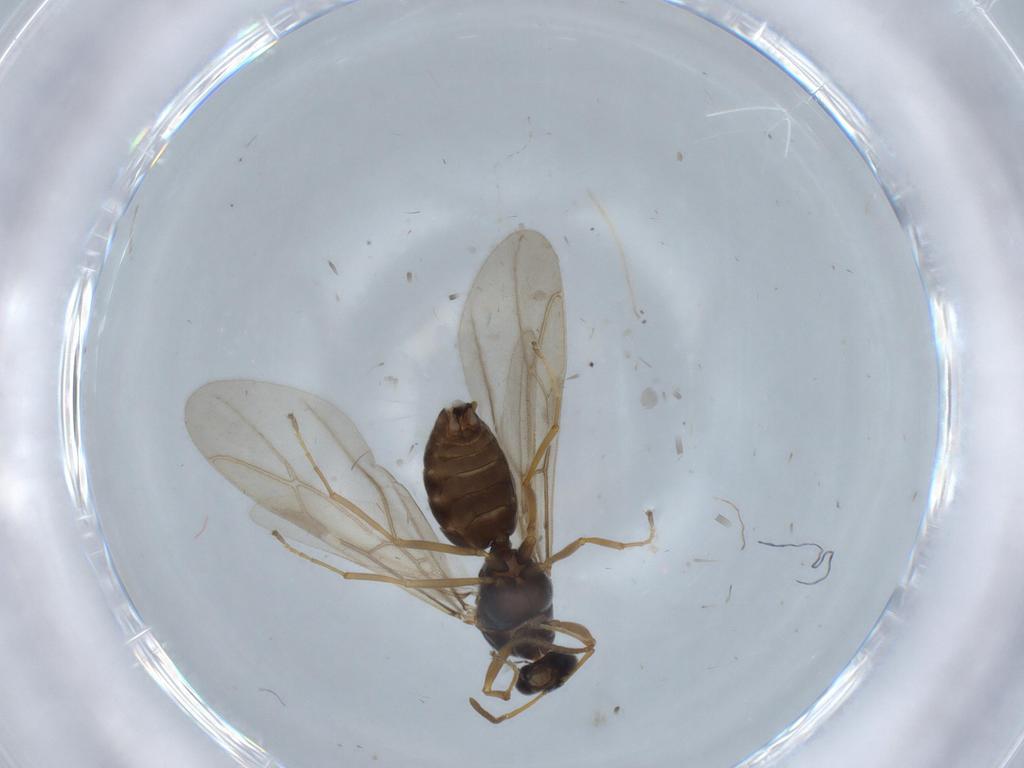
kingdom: Animalia
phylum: Arthropoda
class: Insecta
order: Hymenoptera
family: Formicidae
